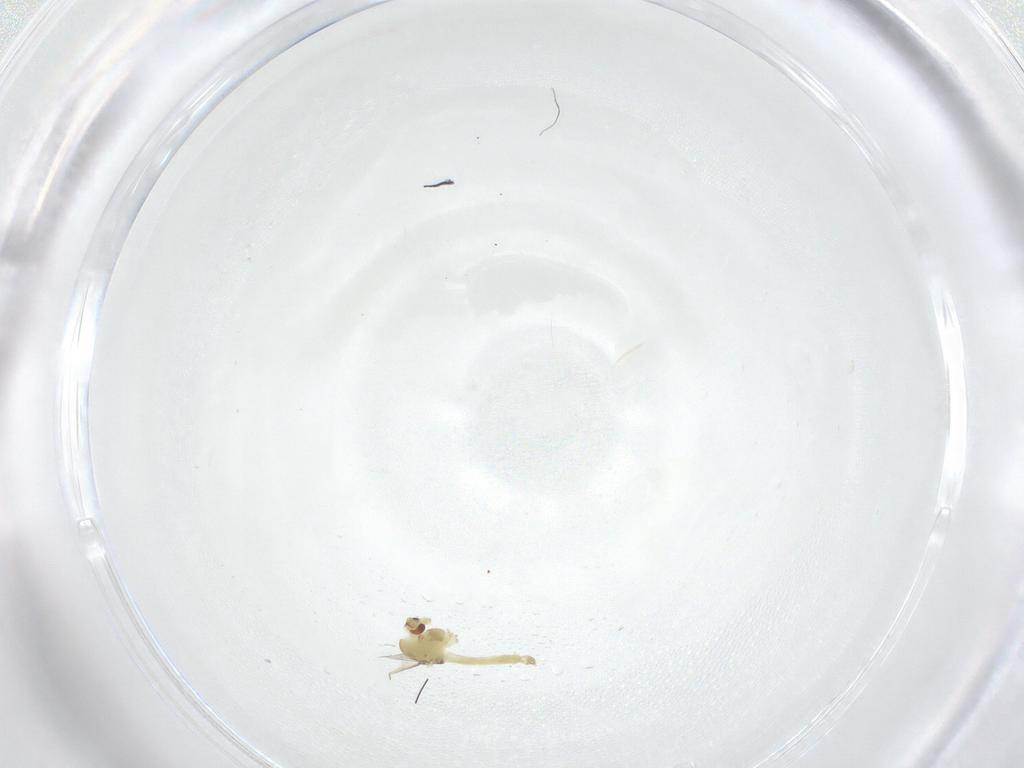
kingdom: Animalia
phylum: Arthropoda
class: Insecta
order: Diptera
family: Chironomidae
